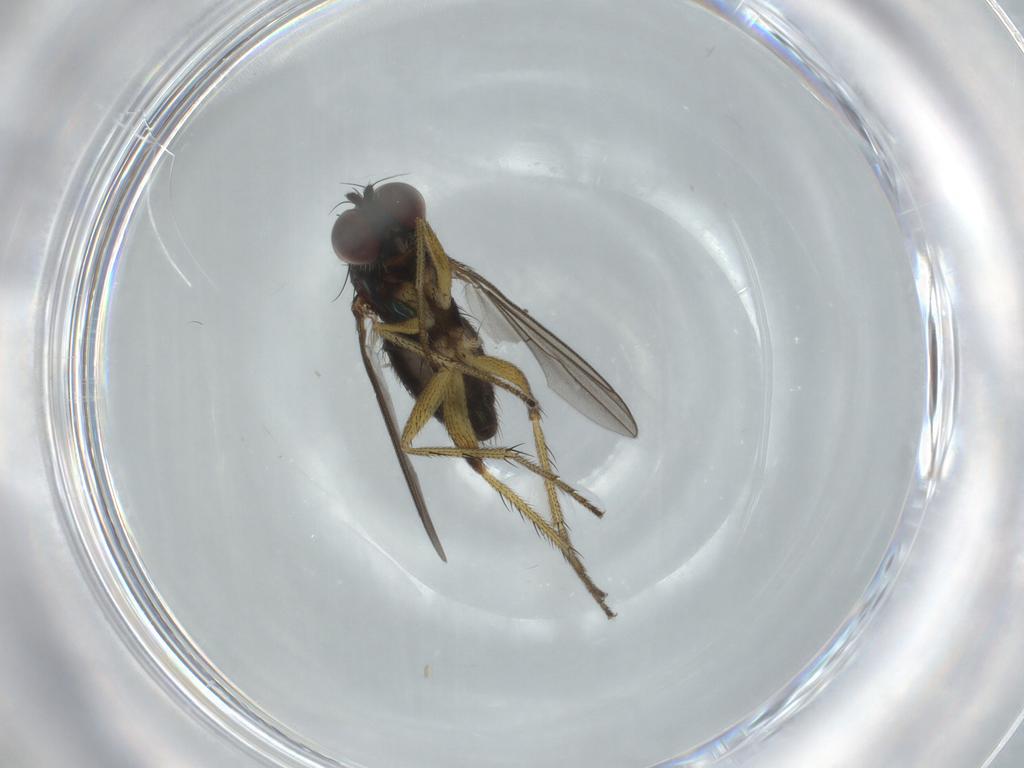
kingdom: Animalia
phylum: Arthropoda
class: Insecta
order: Diptera
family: Dolichopodidae
